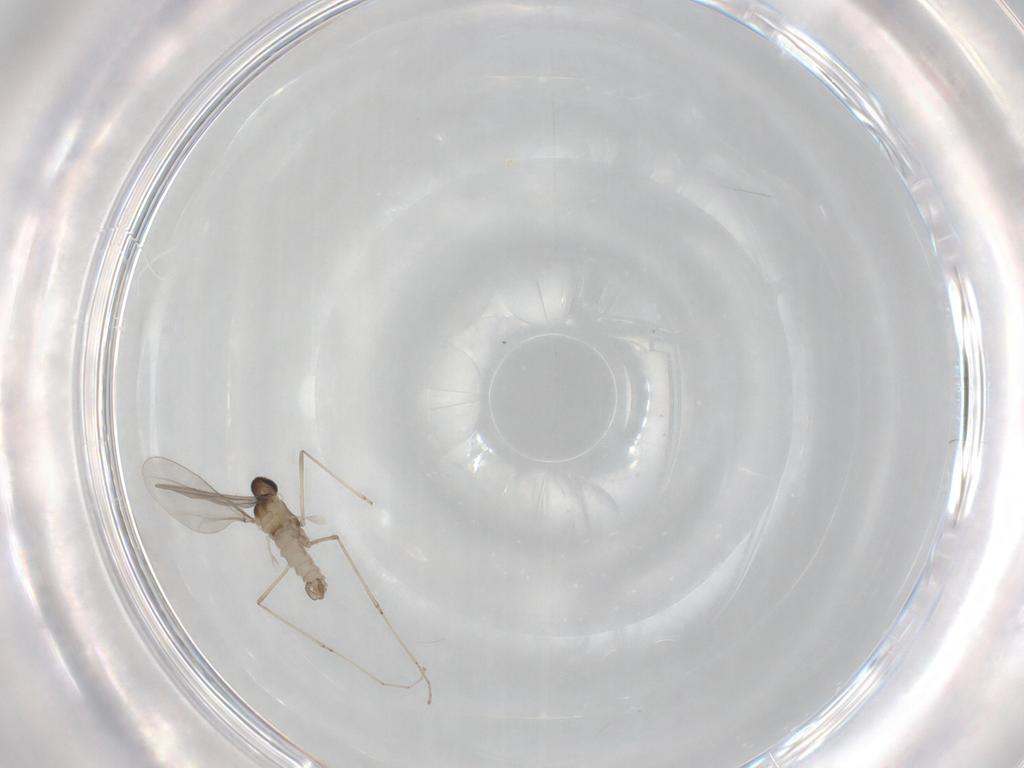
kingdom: Animalia
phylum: Arthropoda
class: Insecta
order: Diptera
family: Cecidomyiidae
